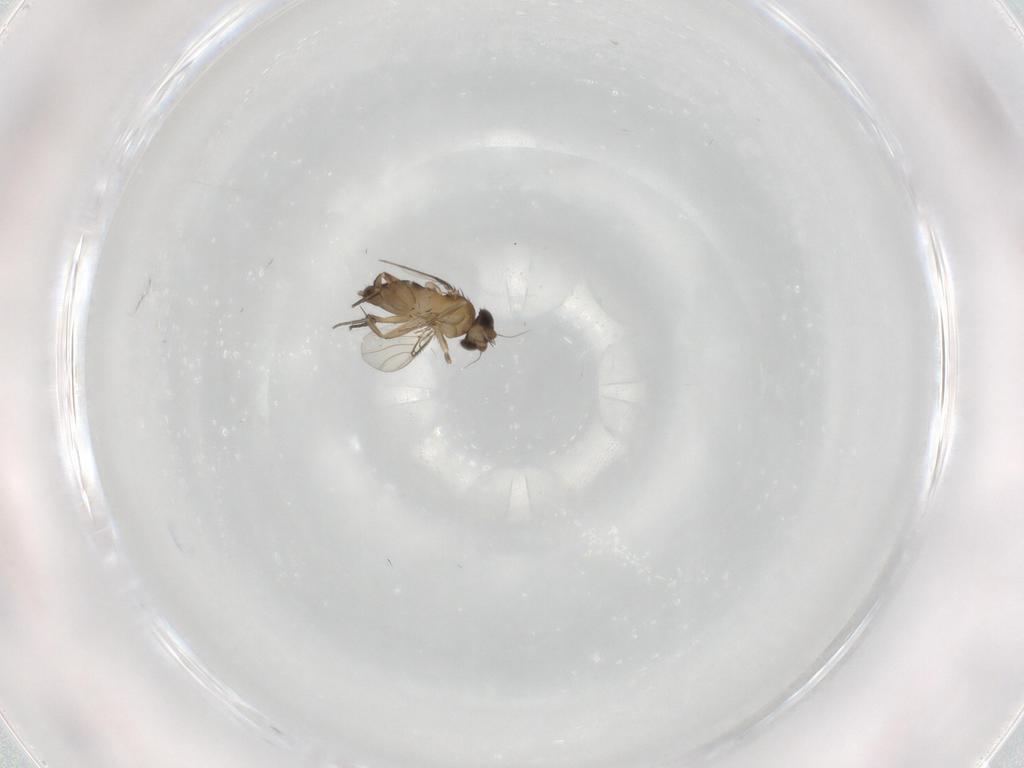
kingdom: Animalia
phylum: Arthropoda
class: Insecta
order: Diptera
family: Phoridae
